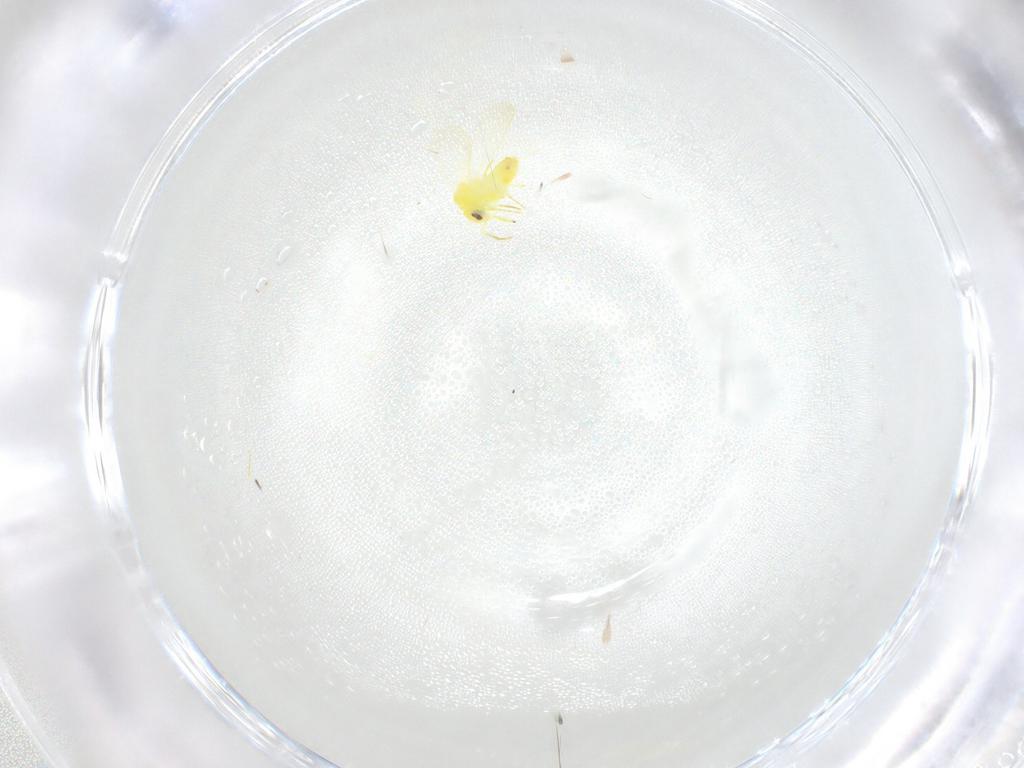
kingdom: Animalia
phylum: Arthropoda
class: Insecta
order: Hemiptera
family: Aleyrodidae
